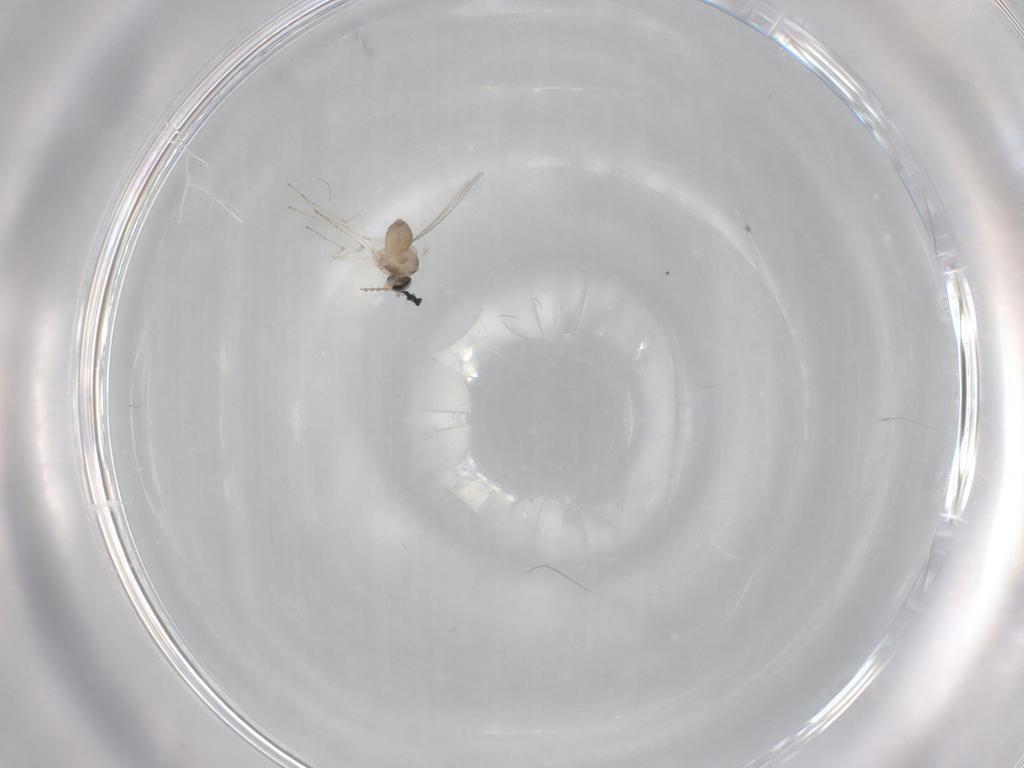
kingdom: Animalia
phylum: Arthropoda
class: Insecta
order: Diptera
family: Cecidomyiidae
